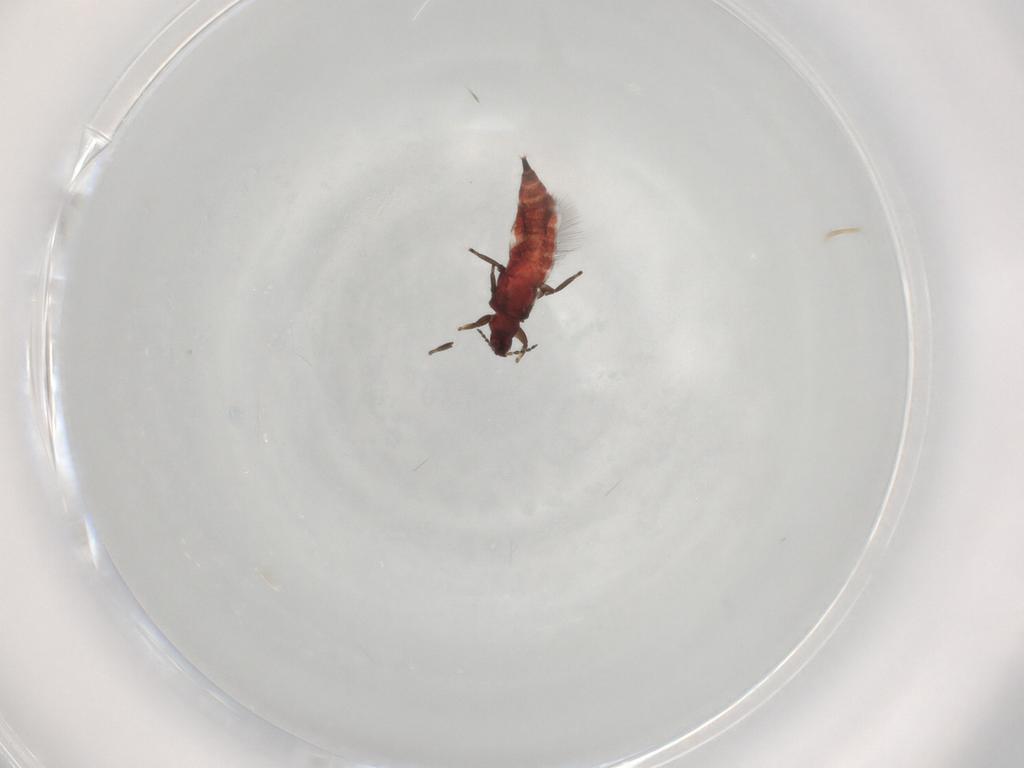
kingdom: Animalia
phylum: Arthropoda
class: Insecta
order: Thysanoptera
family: Phlaeothripidae
